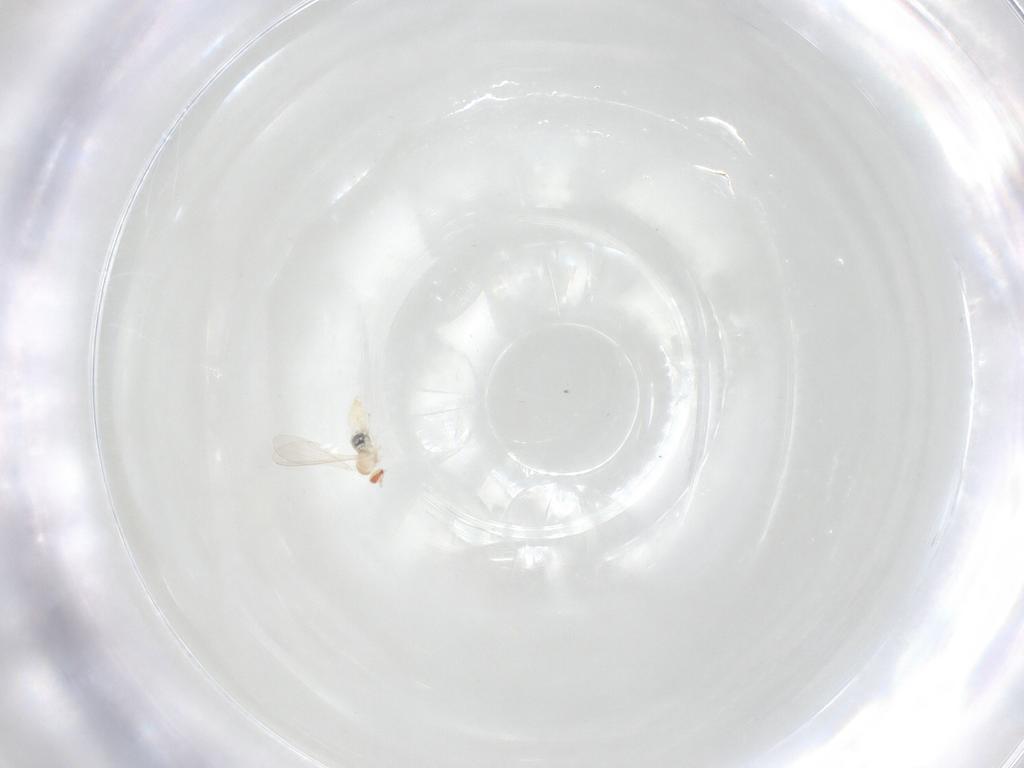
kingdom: Animalia
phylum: Arthropoda
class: Insecta
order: Diptera
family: Cecidomyiidae
